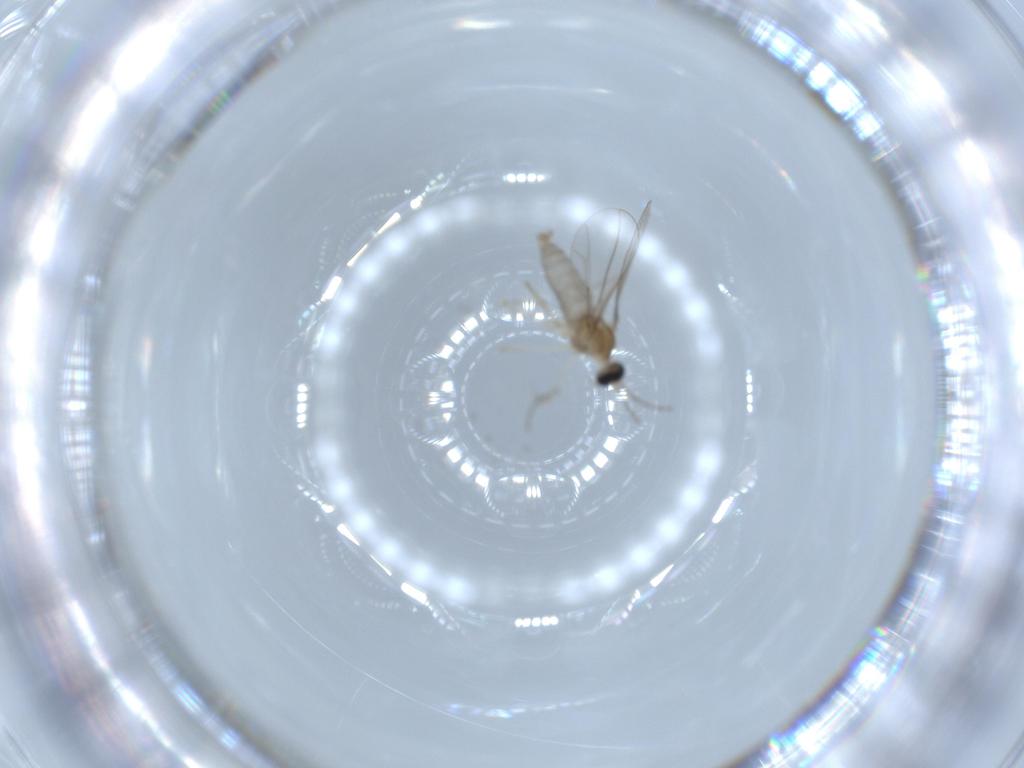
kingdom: Animalia
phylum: Arthropoda
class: Insecta
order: Diptera
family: Cecidomyiidae
